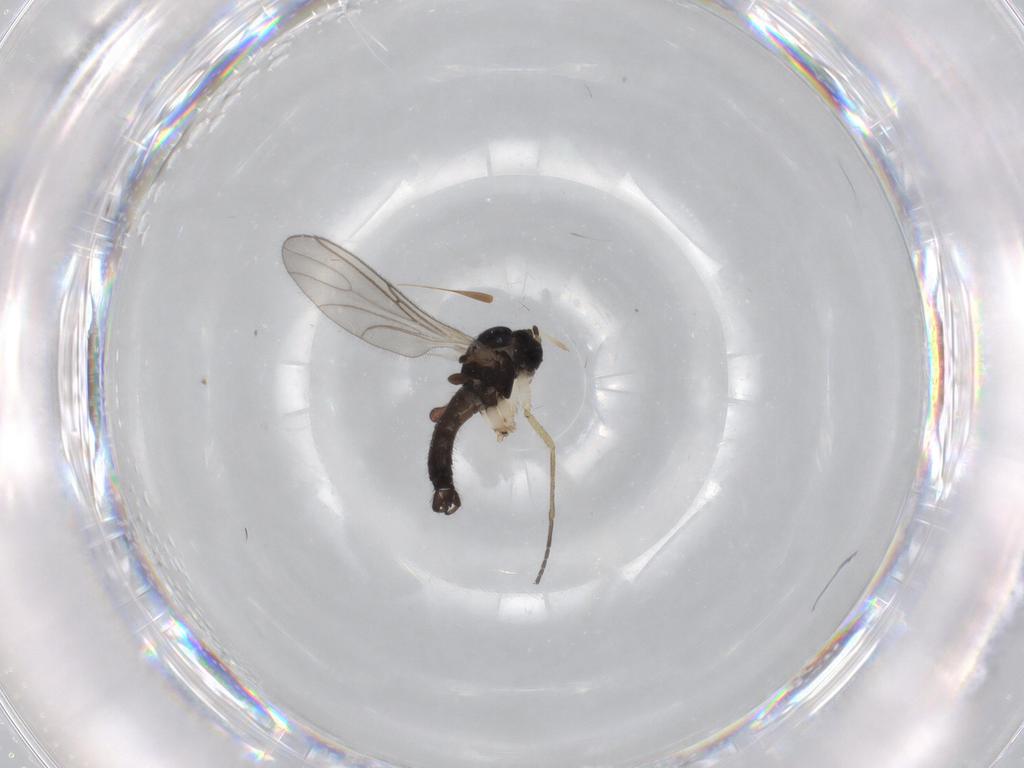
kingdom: Animalia
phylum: Arthropoda
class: Insecta
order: Diptera
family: Sciaridae
